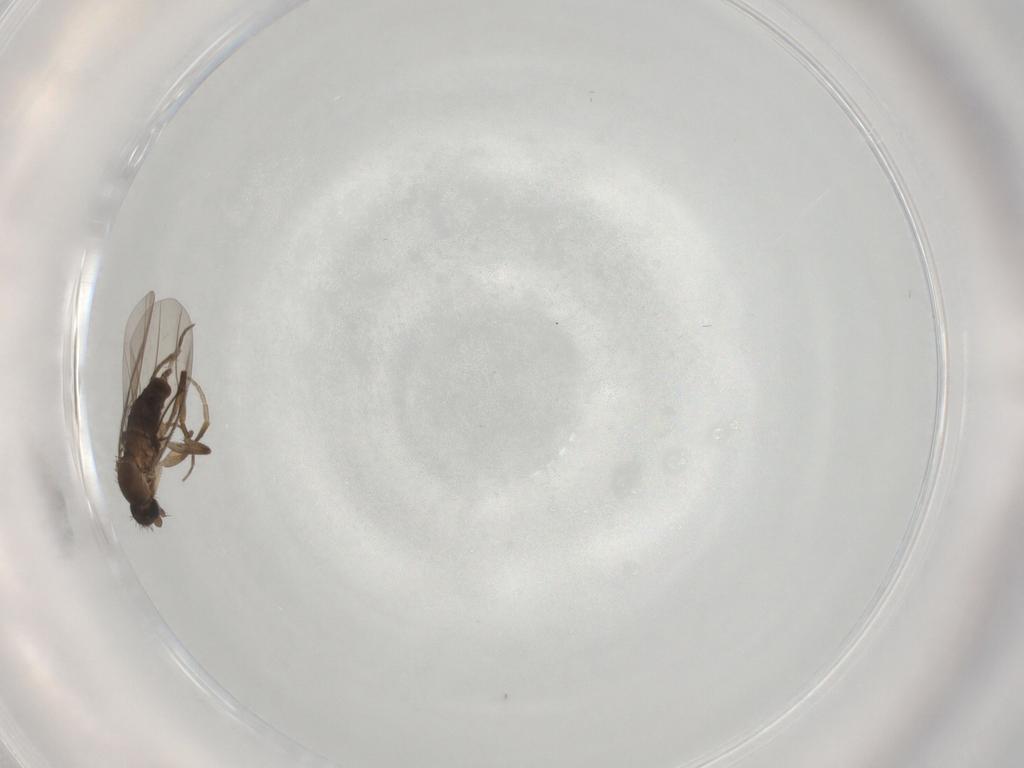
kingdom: Animalia
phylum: Arthropoda
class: Insecta
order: Diptera
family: Phoridae
